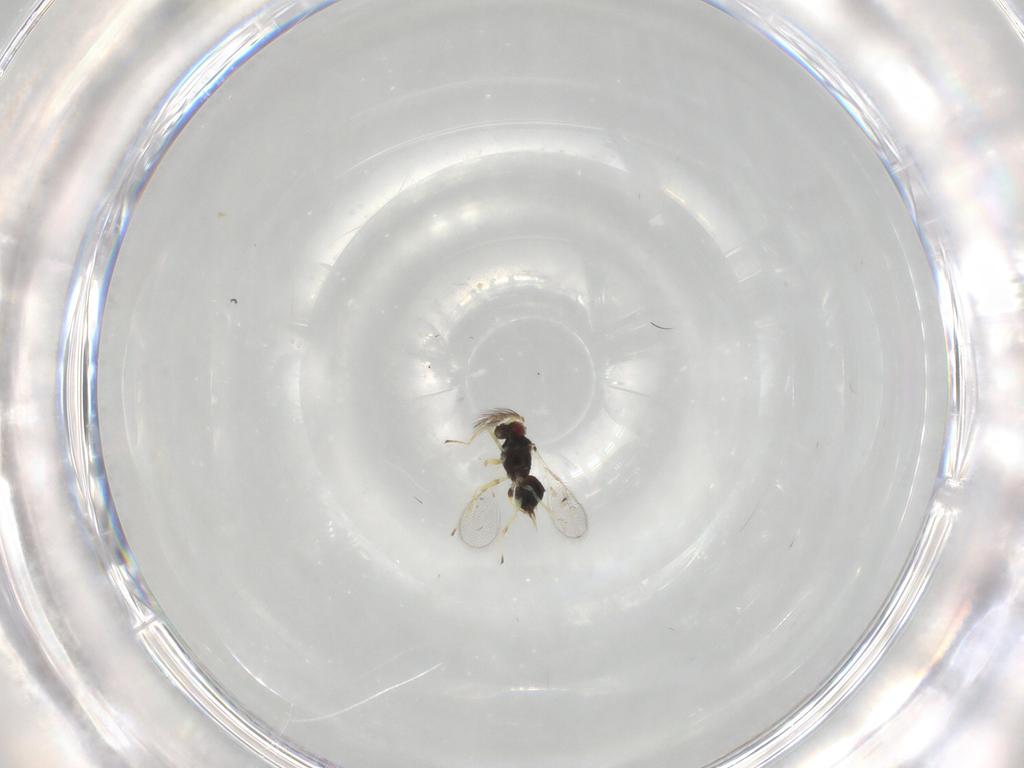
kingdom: Animalia
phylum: Arthropoda
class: Insecta
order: Hymenoptera
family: Eulophidae
